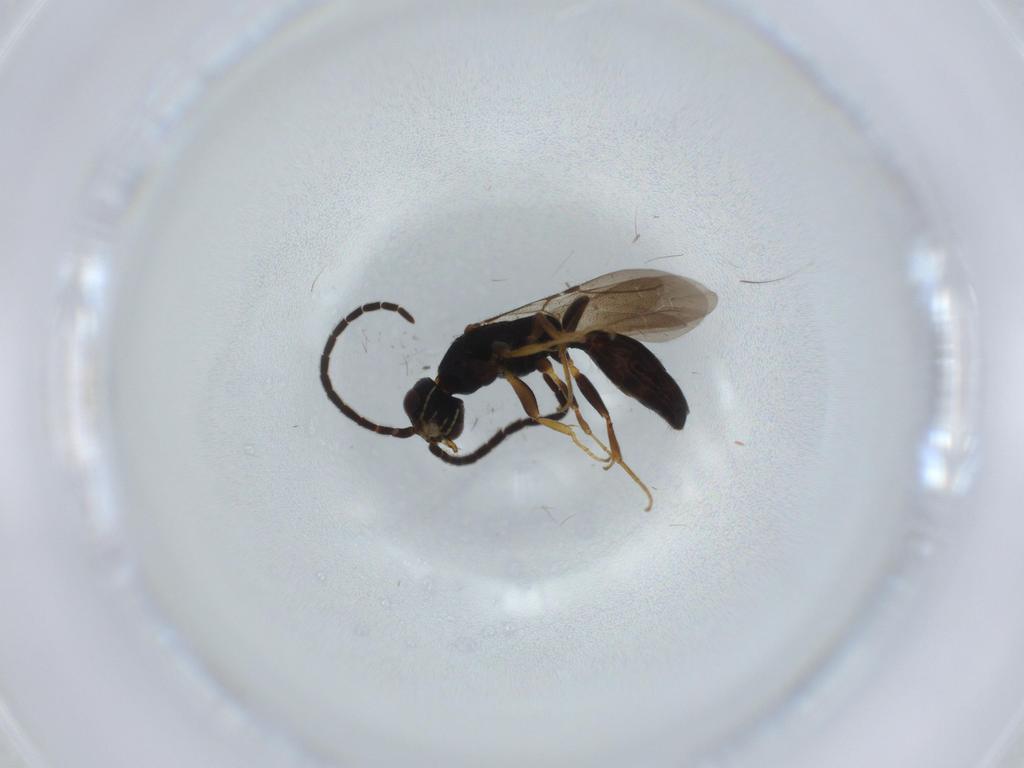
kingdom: Animalia
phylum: Arthropoda
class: Insecta
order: Hymenoptera
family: Bethylidae
